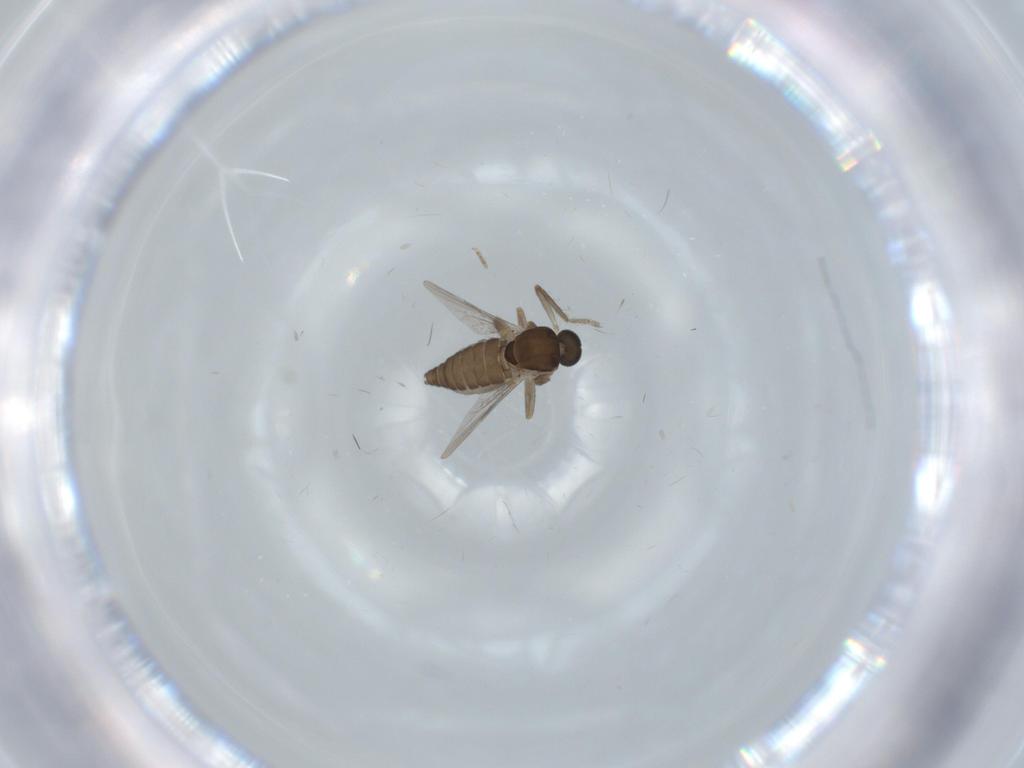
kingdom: Animalia
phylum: Arthropoda
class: Insecta
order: Diptera
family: Ceratopogonidae
